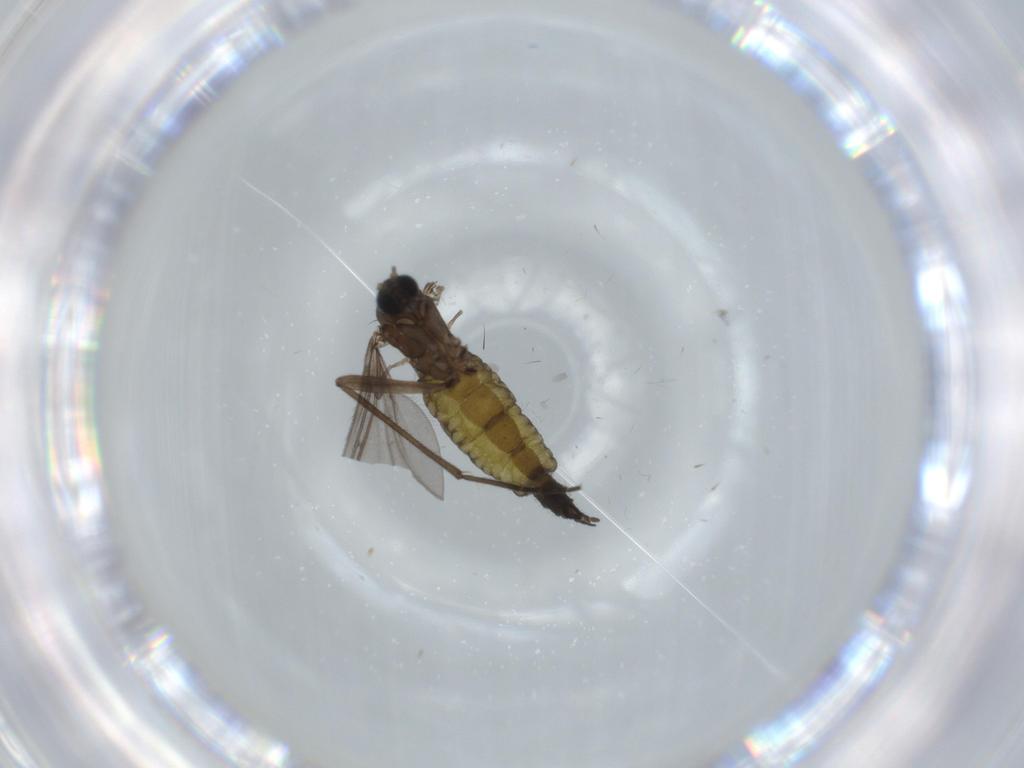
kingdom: Animalia
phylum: Arthropoda
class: Insecta
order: Diptera
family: Sciaridae
